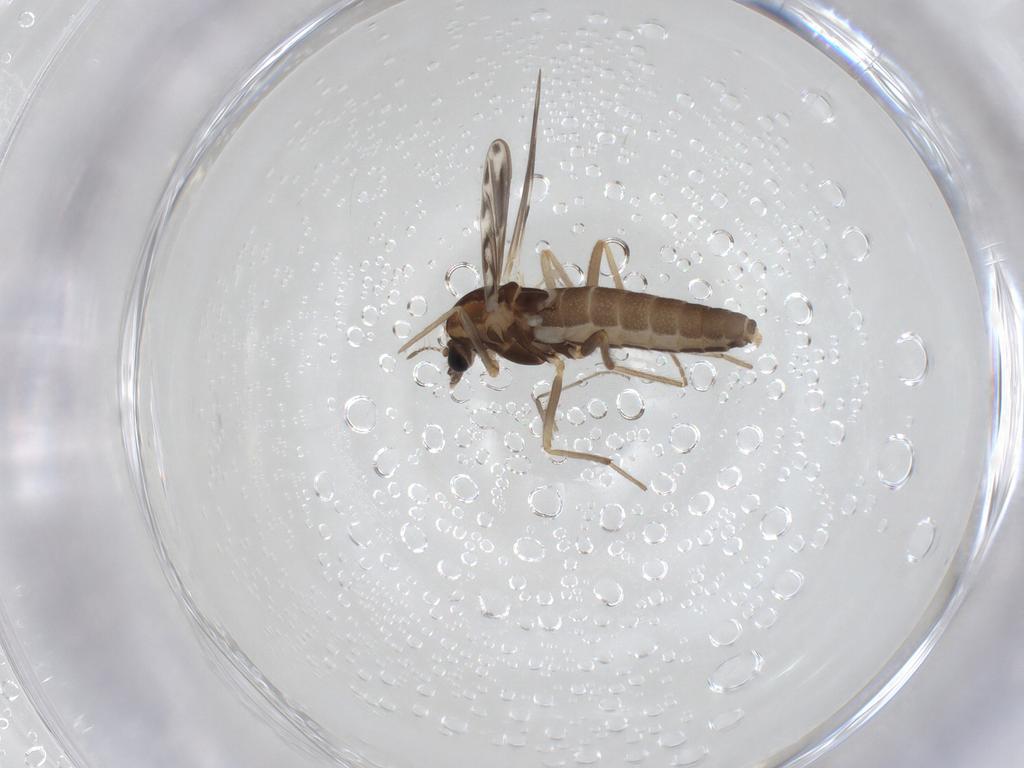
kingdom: Animalia
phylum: Arthropoda
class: Insecta
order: Diptera
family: Chironomidae
